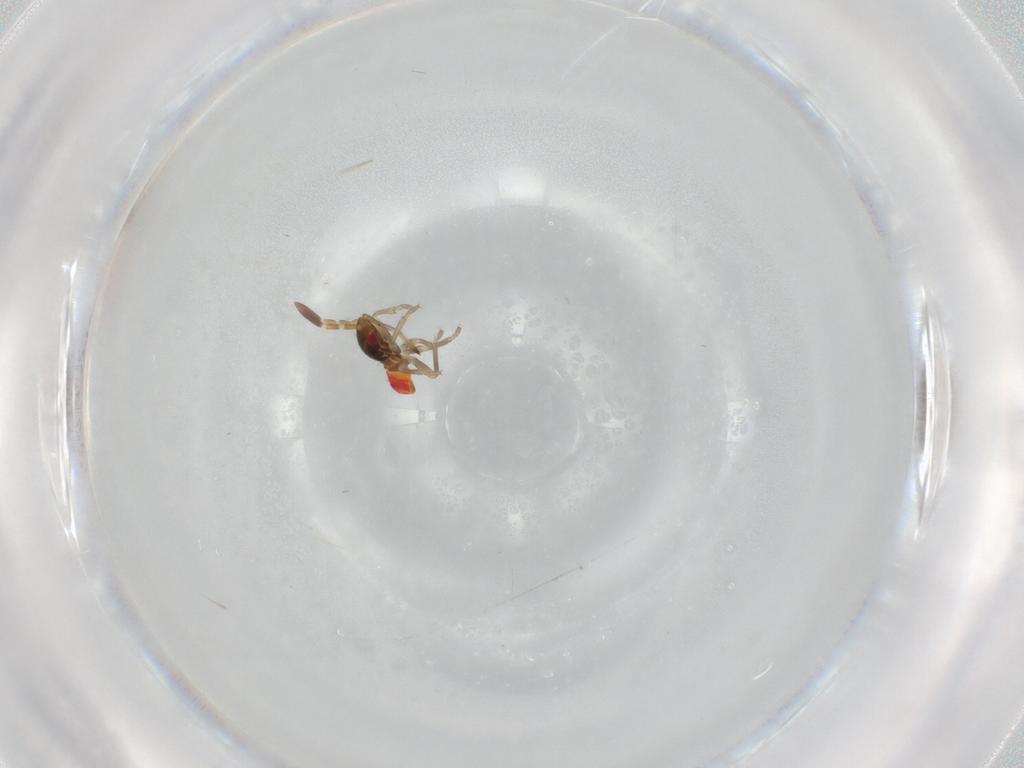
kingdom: Animalia
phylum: Arthropoda
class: Insecta
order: Hemiptera
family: Rhyparochromidae
